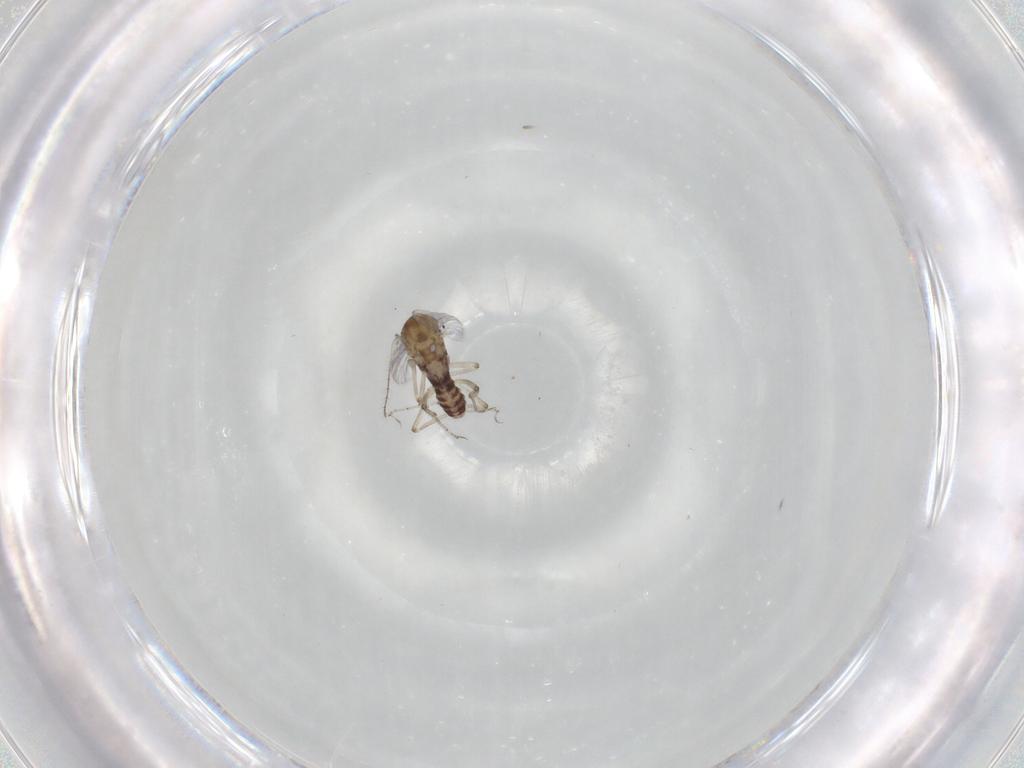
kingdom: Animalia
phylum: Arthropoda
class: Insecta
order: Diptera
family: Ceratopogonidae
